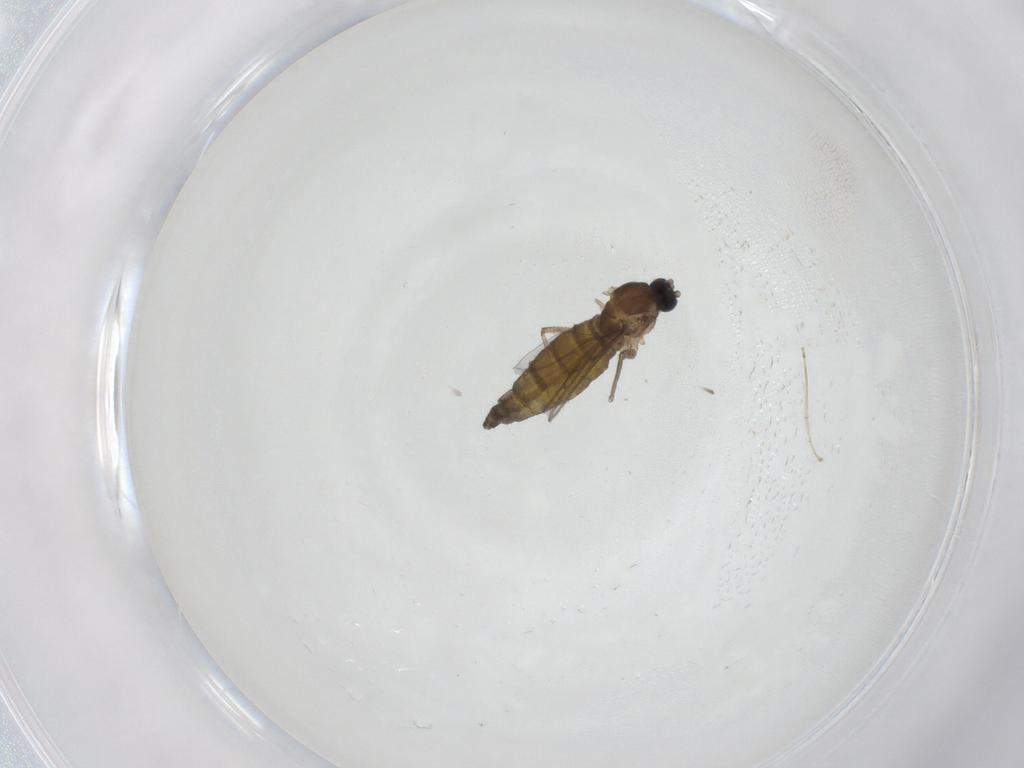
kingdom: Animalia
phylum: Arthropoda
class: Insecta
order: Diptera
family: Sciaridae
